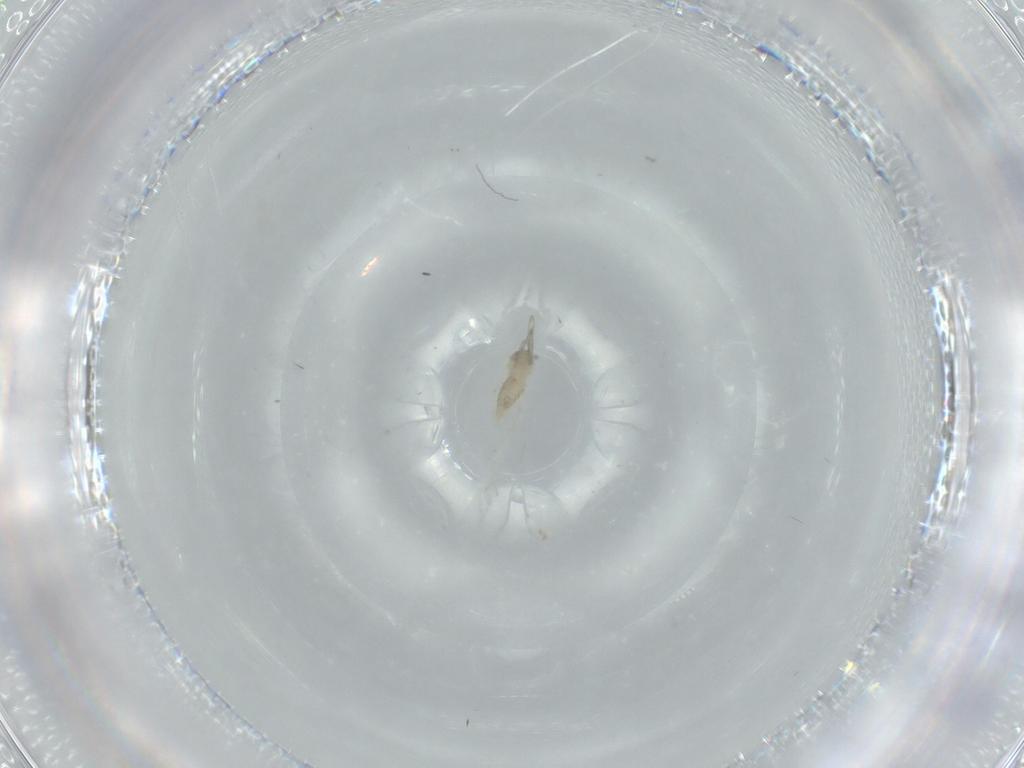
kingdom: Animalia
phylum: Arthropoda
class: Insecta
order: Diptera
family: Cecidomyiidae
